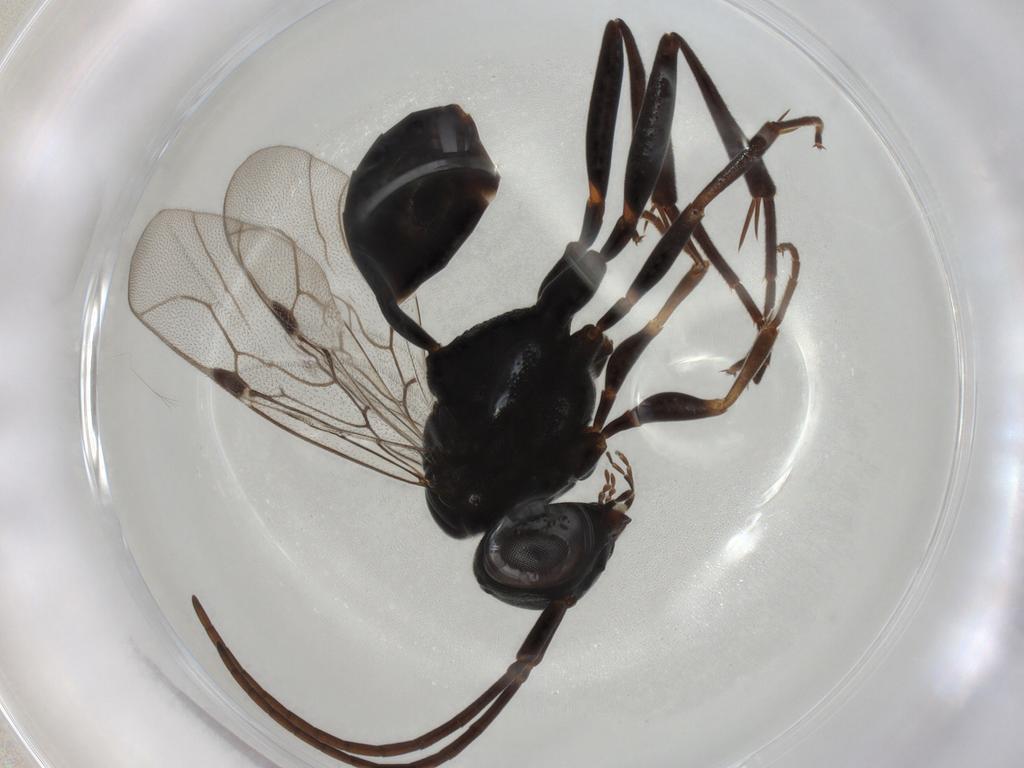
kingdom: Animalia
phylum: Arthropoda
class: Insecta
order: Hymenoptera
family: Evaniidae
